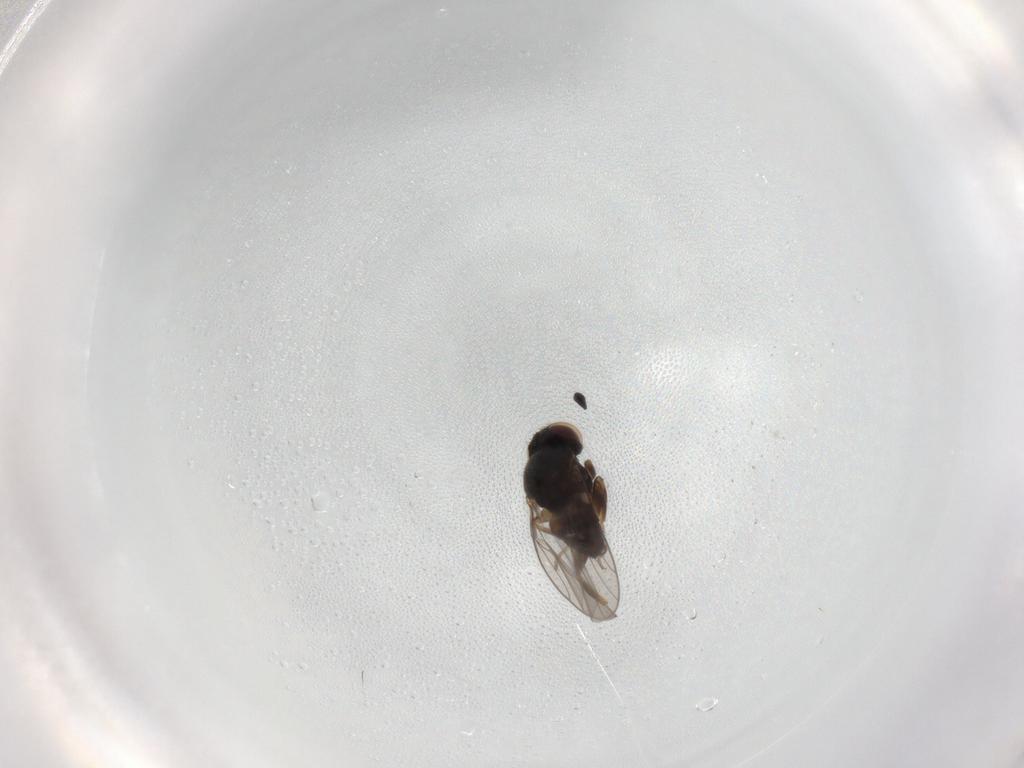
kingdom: Animalia
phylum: Arthropoda
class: Insecta
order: Diptera
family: Chloropidae
